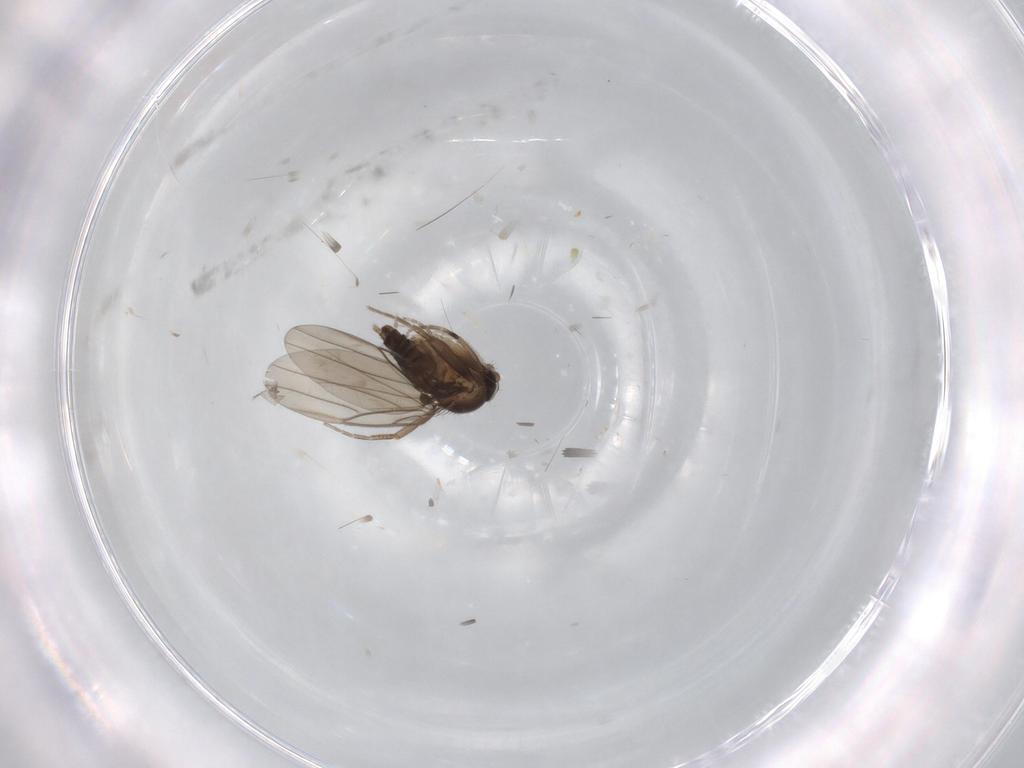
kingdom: Animalia
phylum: Arthropoda
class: Insecta
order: Diptera
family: Phoridae
